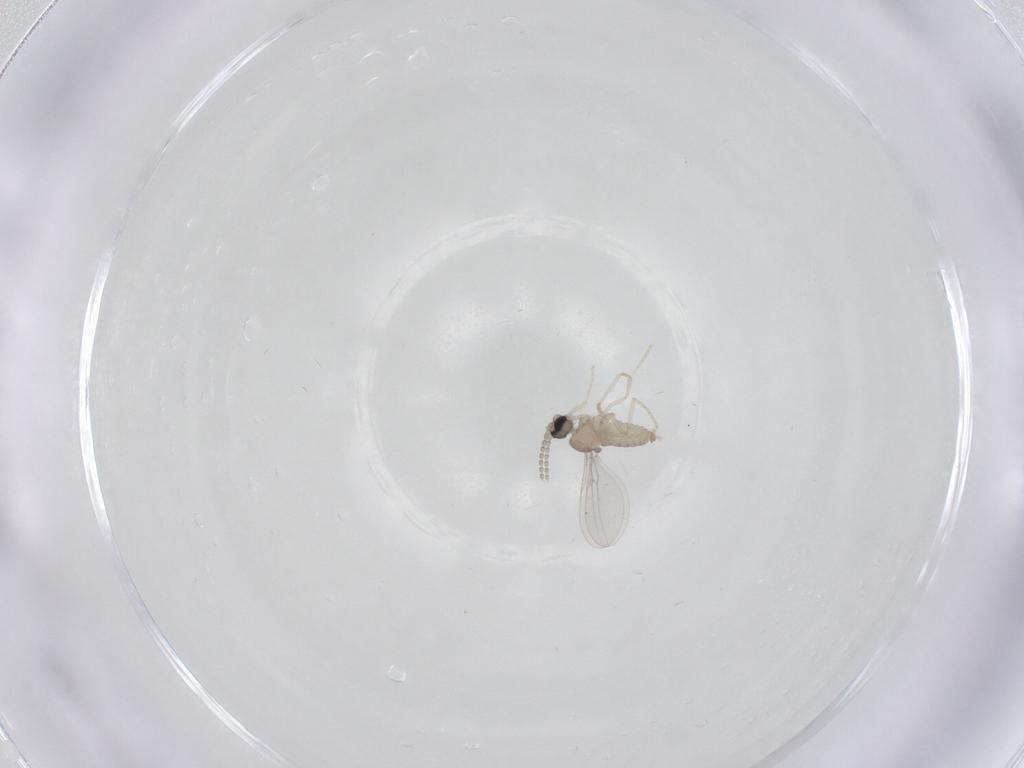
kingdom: Animalia
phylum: Arthropoda
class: Insecta
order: Diptera
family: Cecidomyiidae
